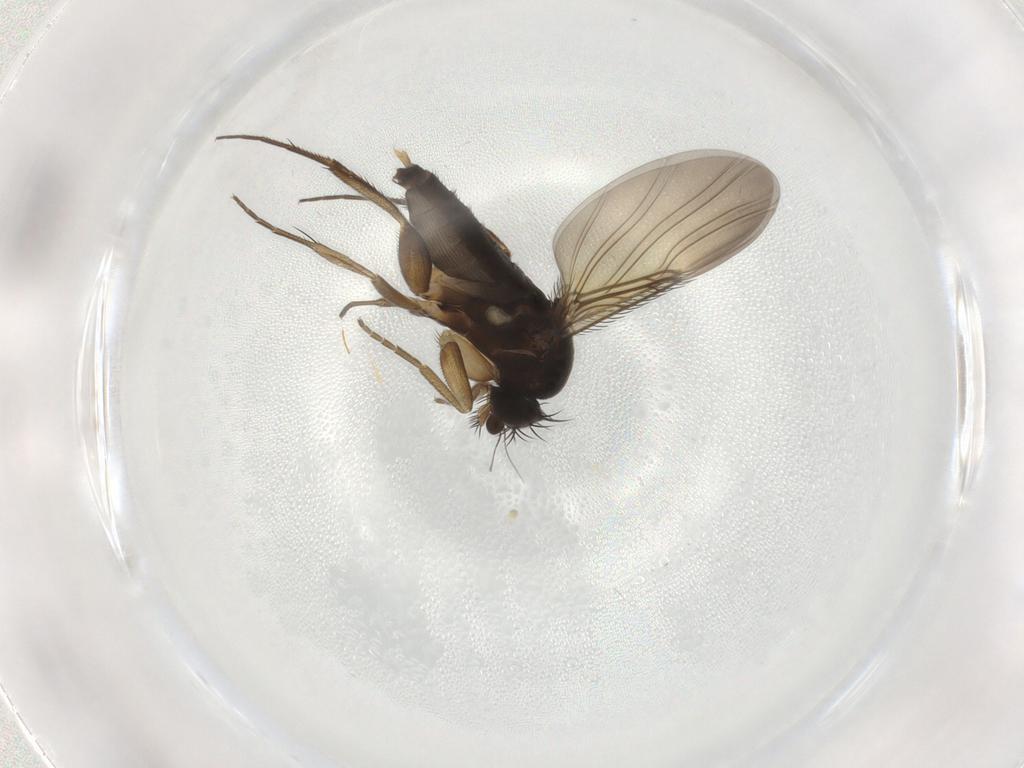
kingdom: Animalia
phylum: Arthropoda
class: Insecta
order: Diptera
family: Phoridae
